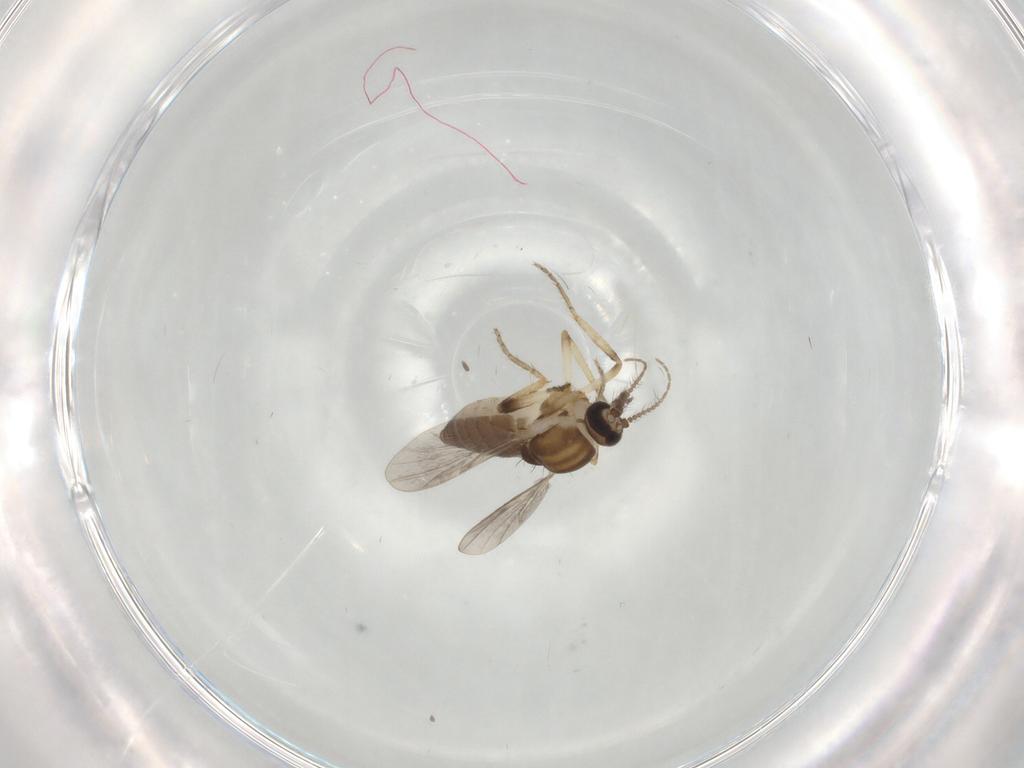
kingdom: Animalia
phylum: Arthropoda
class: Insecta
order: Diptera
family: Ceratopogonidae
